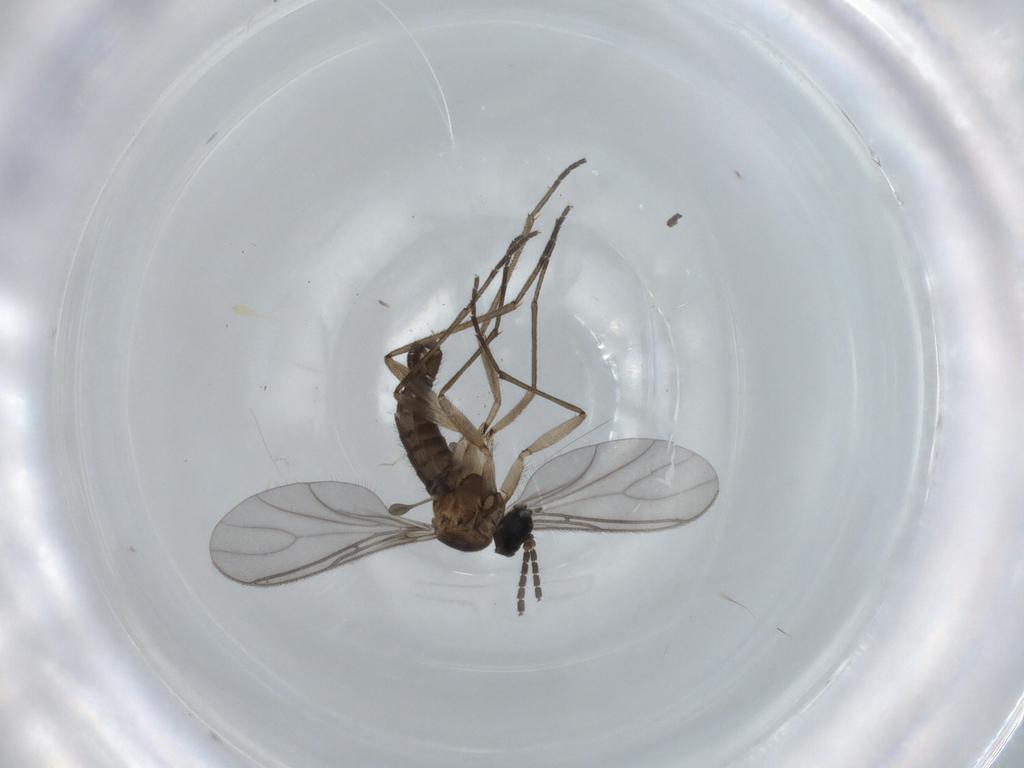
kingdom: Animalia
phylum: Arthropoda
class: Insecta
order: Diptera
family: Sciaridae
